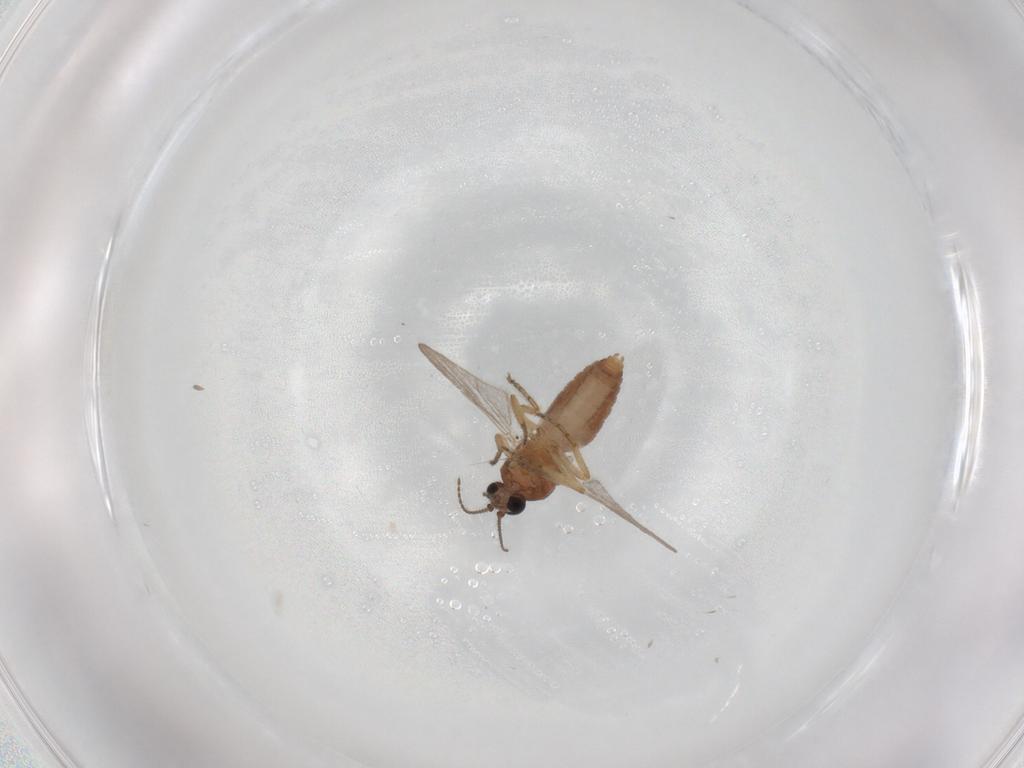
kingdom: Animalia
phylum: Arthropoda
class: Insecta
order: Diptera
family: Ceratopogonidae
